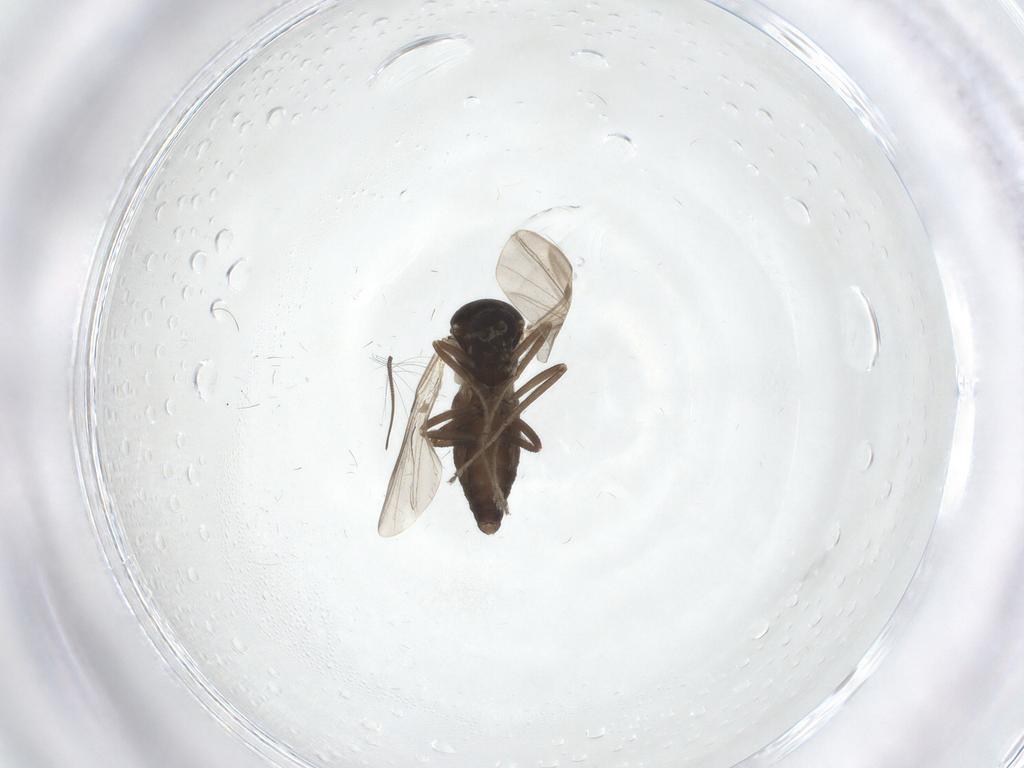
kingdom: Animalia
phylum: Arthropoda
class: Insecta
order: Diptera
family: Ceratopogonidae
